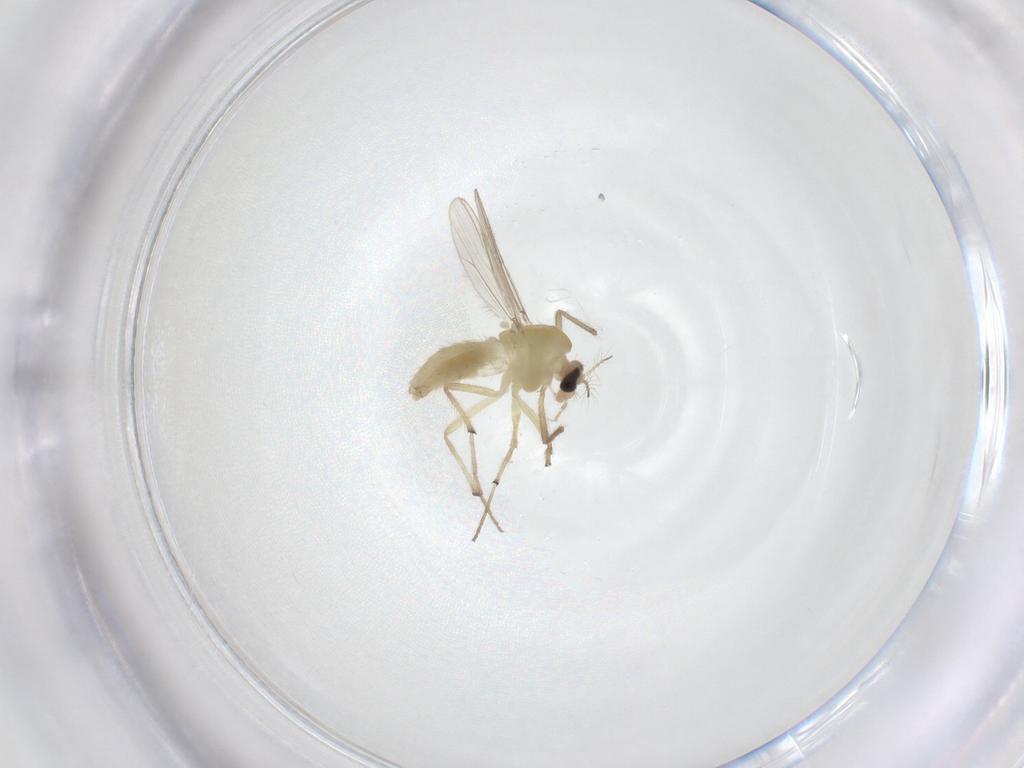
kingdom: Animalia
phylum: Arthropoda
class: Insecta
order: Diptera
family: Chironomidae
